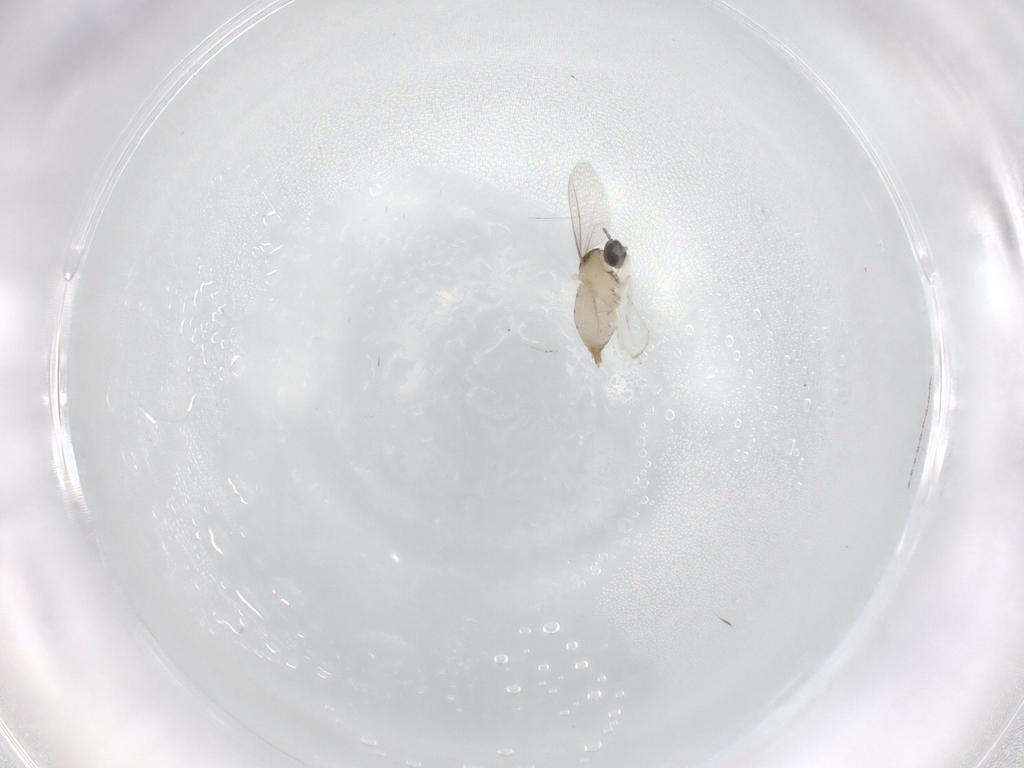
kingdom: Animalia
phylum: Arthropoda
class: Insecta
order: Diptera
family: Cecidomyiidae
